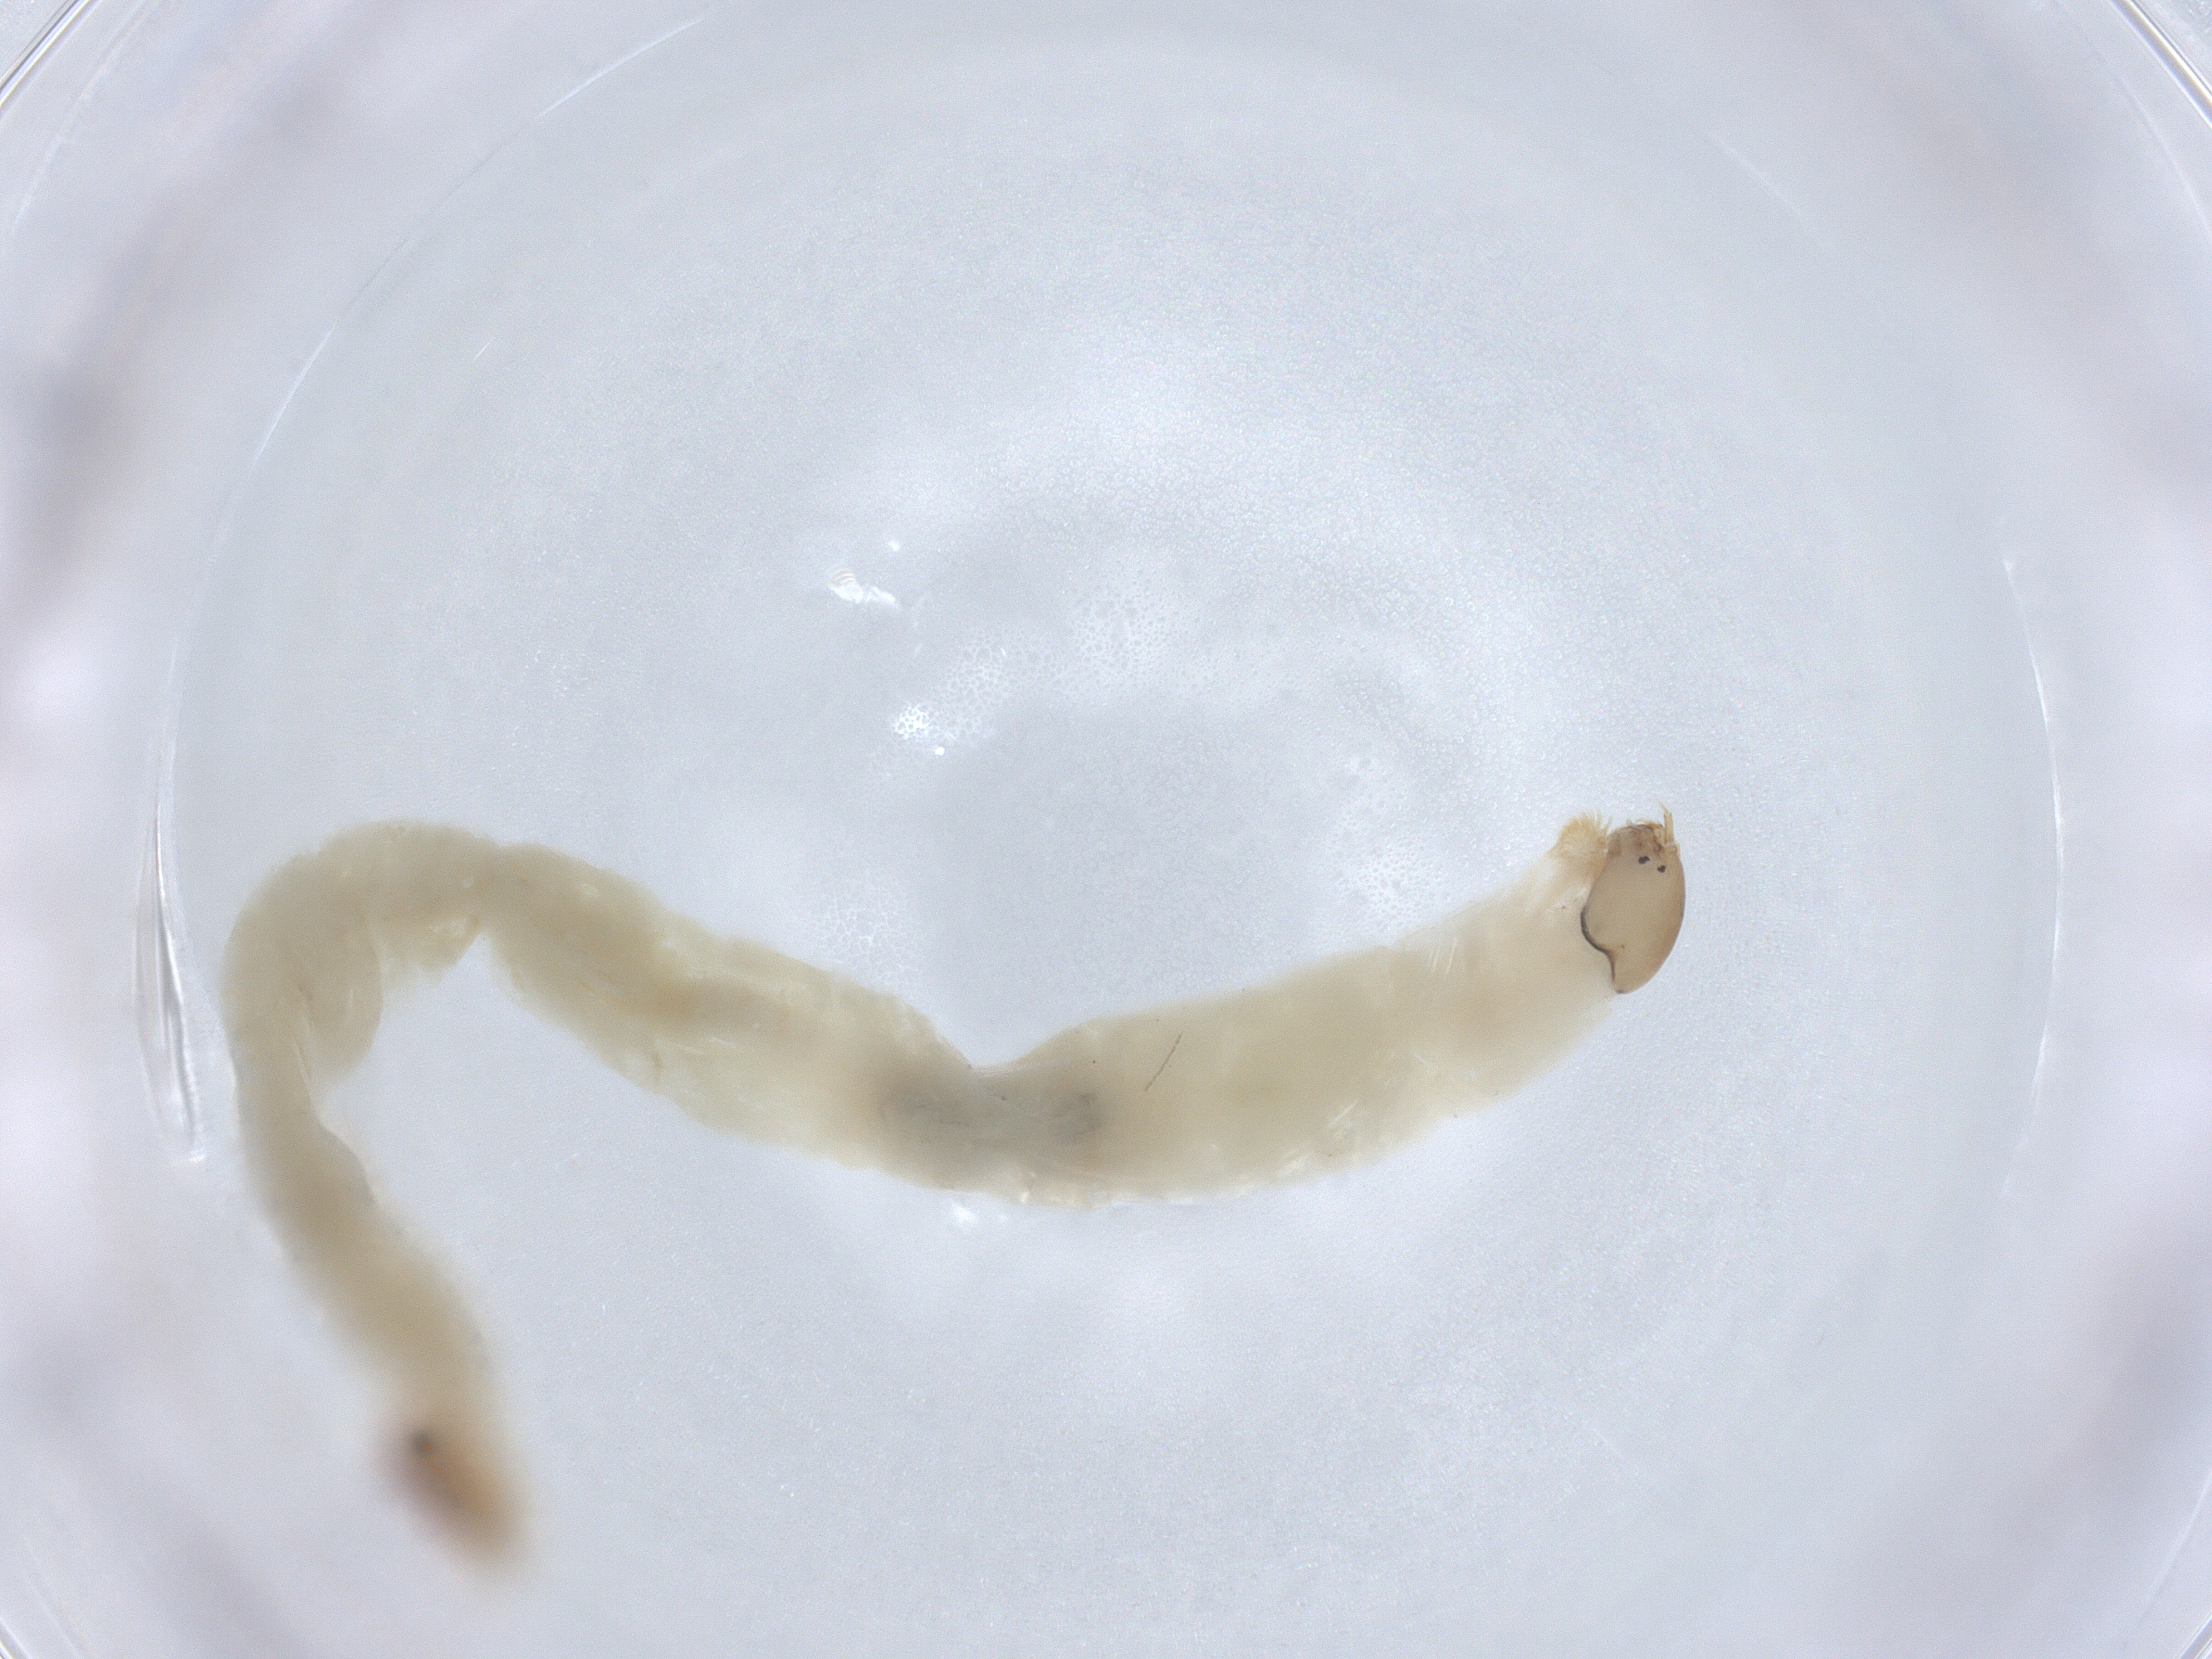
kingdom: Animalia
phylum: Arthropoda
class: Insecta
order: Diptera
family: Chironomidae
